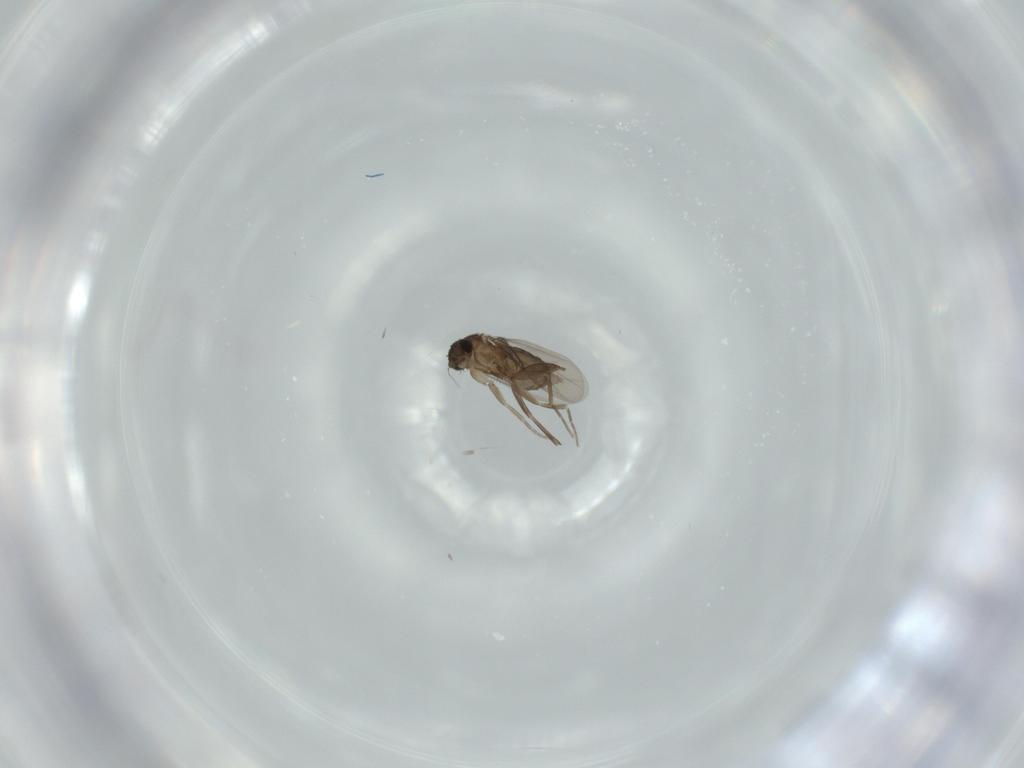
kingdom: Animalia
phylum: Arthropoda
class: Insecta
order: Diptera
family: Phoridae
